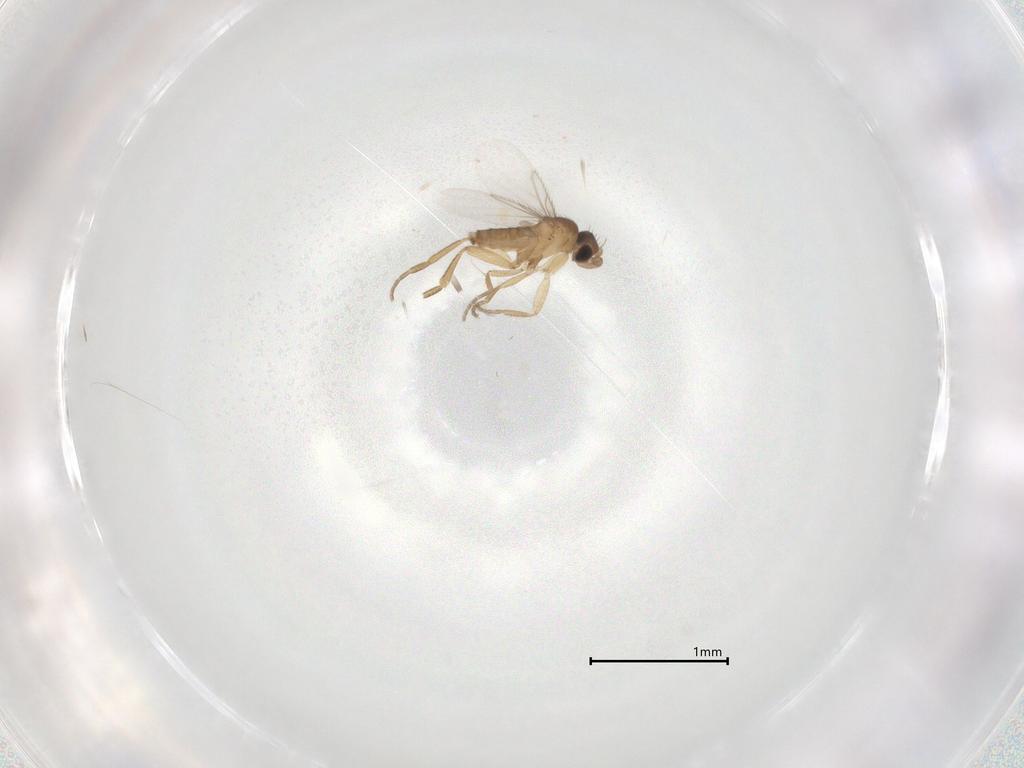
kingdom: Animalia
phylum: Arthropoda
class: Insecta
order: Diptera
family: Phoridae
